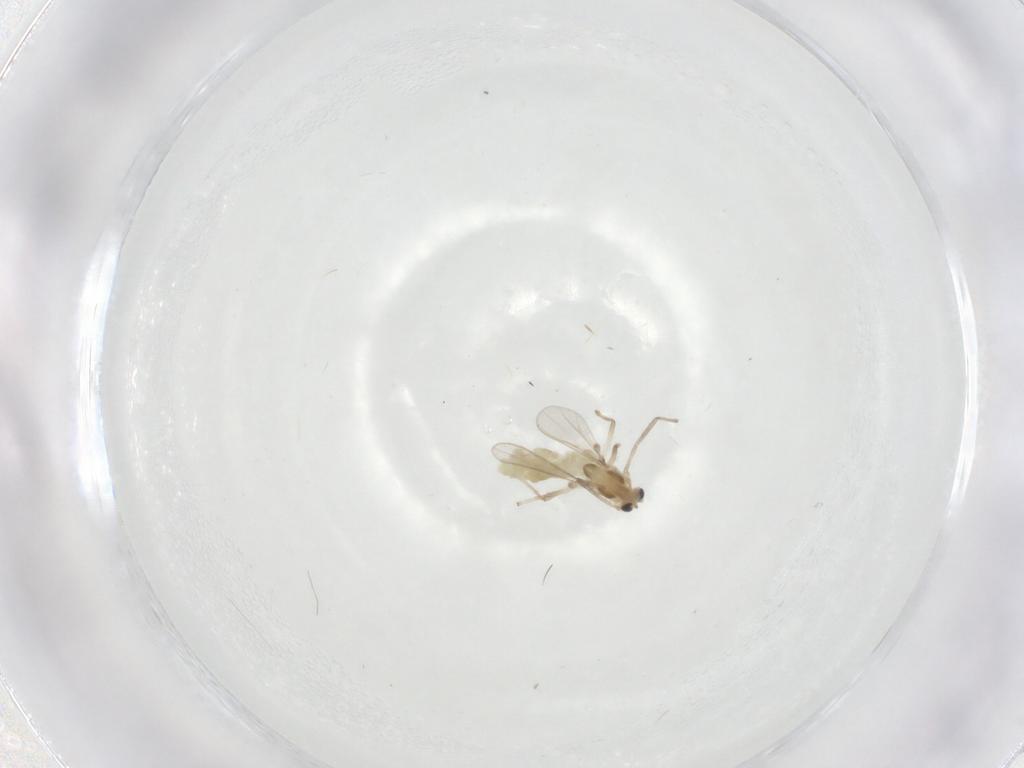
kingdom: Animalia
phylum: Arthropoda
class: Insecta
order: Diptera
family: Chironomidae
